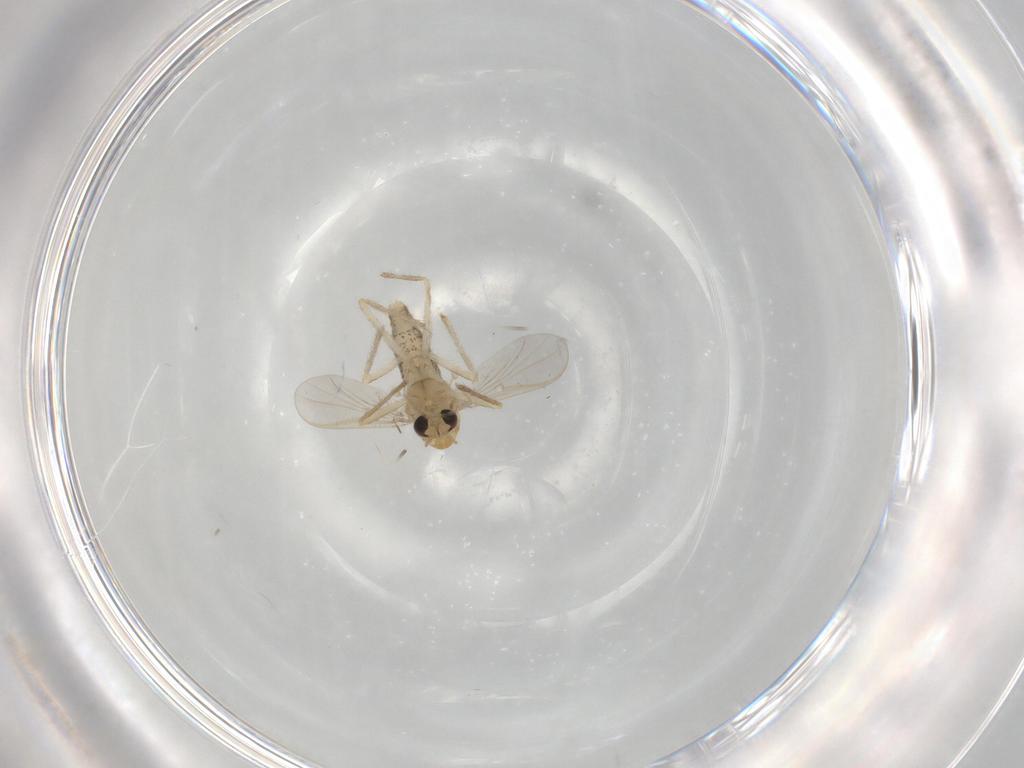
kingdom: Animalia
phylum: Arthropoda
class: Insecta
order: Diptera
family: Chironomidae
